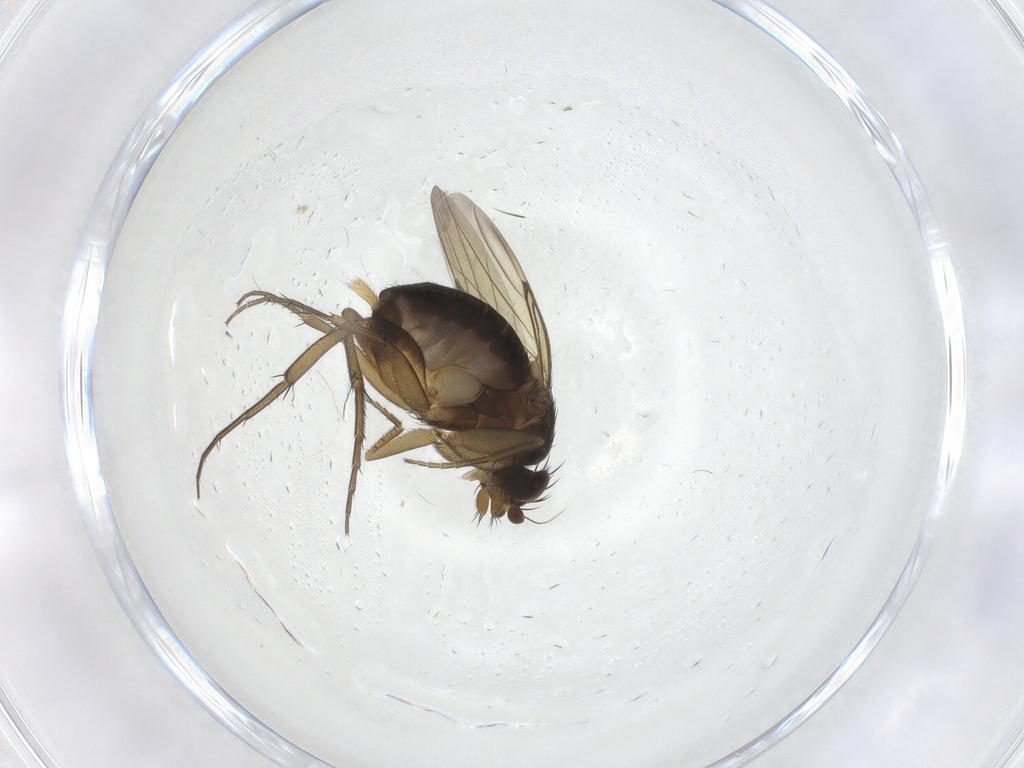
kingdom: Animalia
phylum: Arthropoda
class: Insecta
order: Diptera
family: Phoridae
